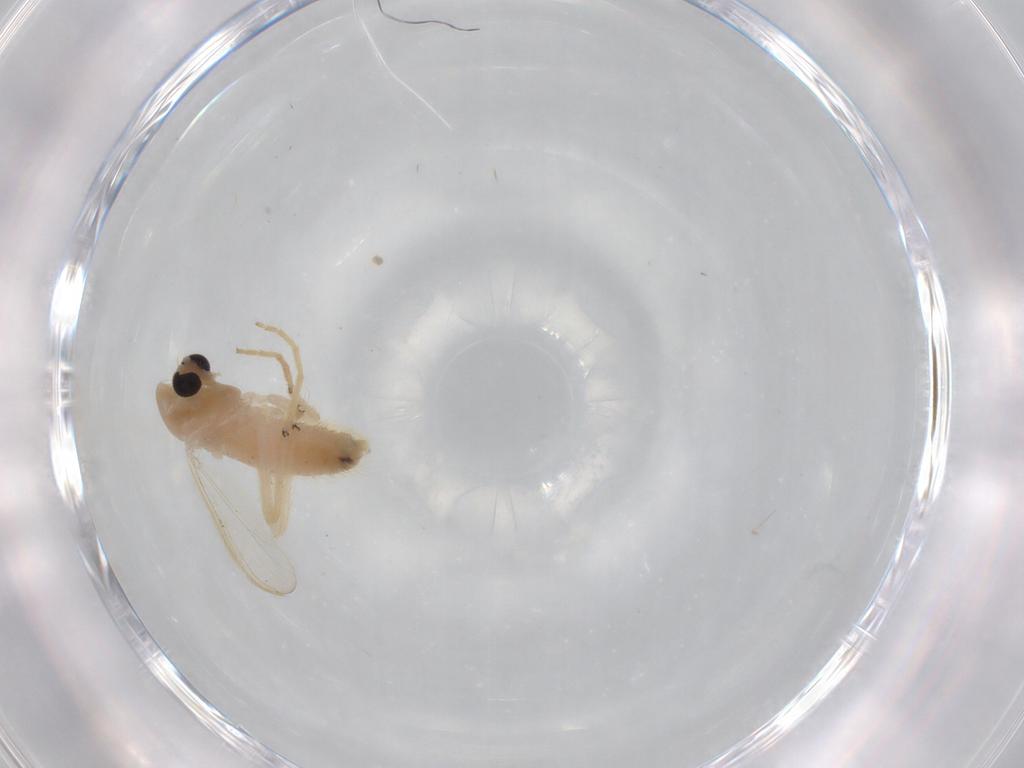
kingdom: Animalia
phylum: Arthropoda
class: Insecta
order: Diptera
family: Chironomidae
